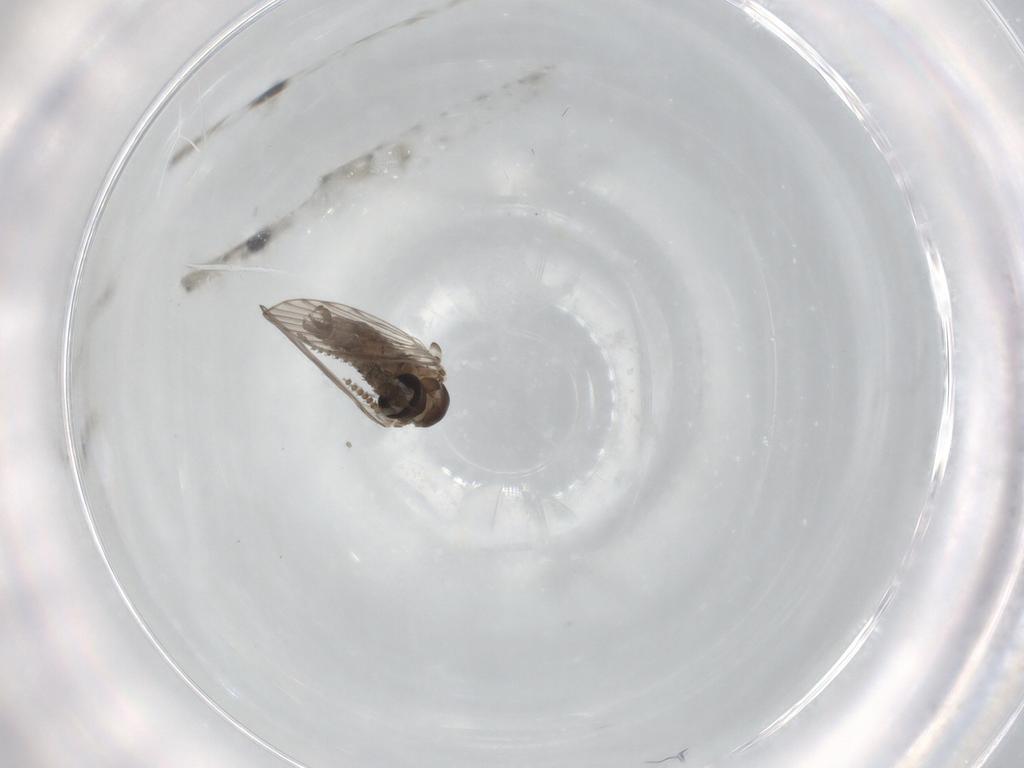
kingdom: Animalia
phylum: Arthropoda
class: Insecta
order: Diptera
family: Psychodidae
